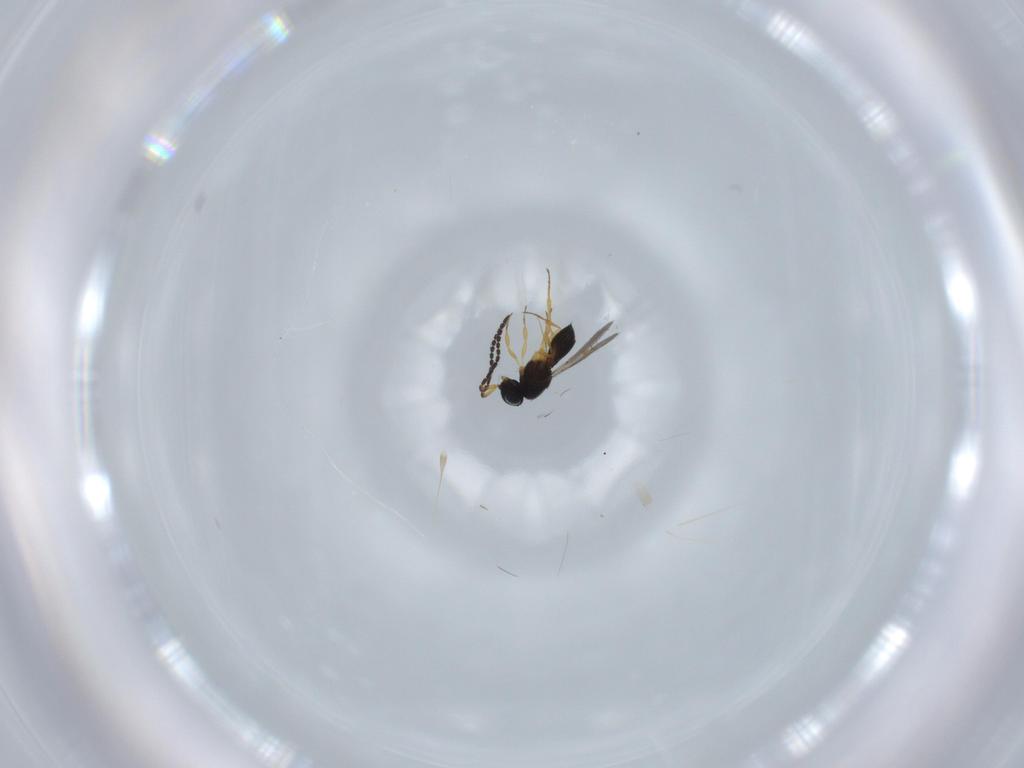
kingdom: Animalia
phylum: Arthropoda
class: Insecta
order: Hymenoptera
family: Scelionidae
